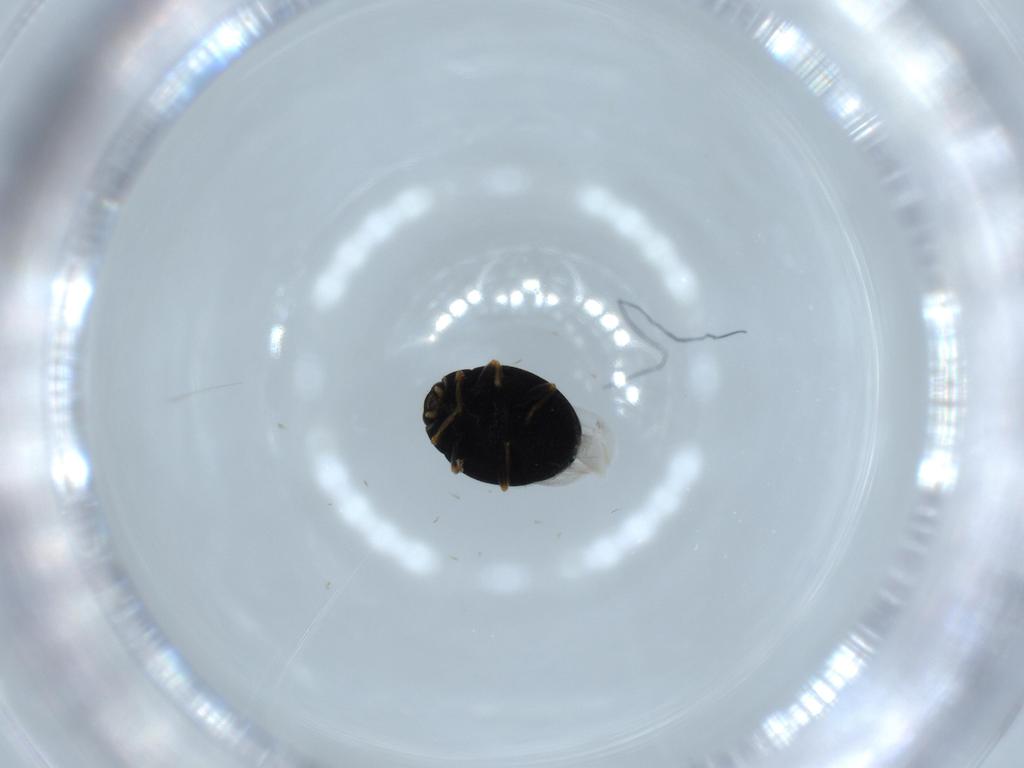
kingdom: Animalia
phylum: Arthropoda
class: Insecta
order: Coleoptera
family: Cerambycidae
